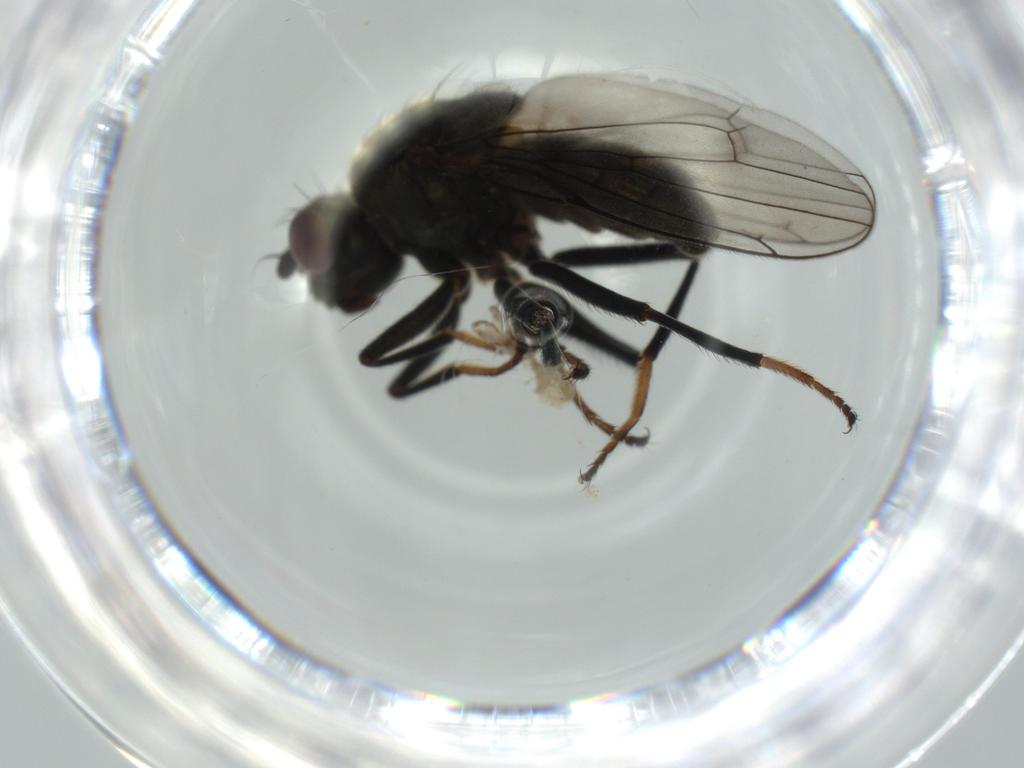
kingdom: Animalia
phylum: Arthropoda
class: Insecta
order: Diptera
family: Ephydridae
